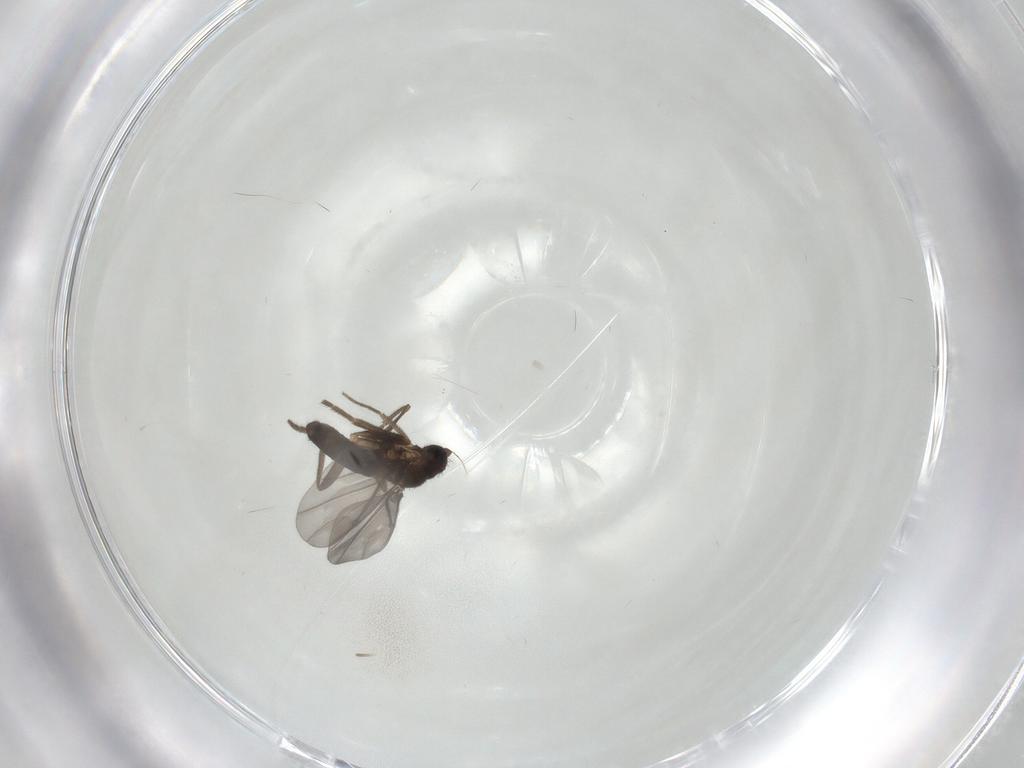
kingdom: Animalia
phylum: Arthropoda
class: Insecta
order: Diptera
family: Phoridae
